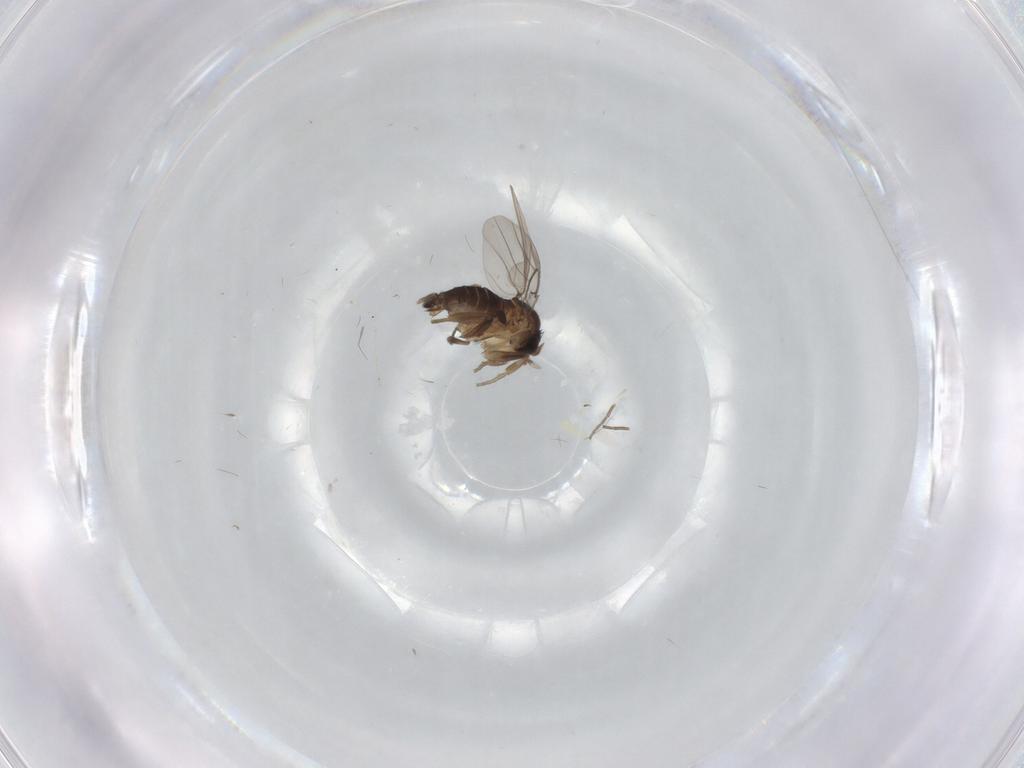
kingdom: Animalia
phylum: Arthropoda
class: Insecta
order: Diptera
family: Phoridae
